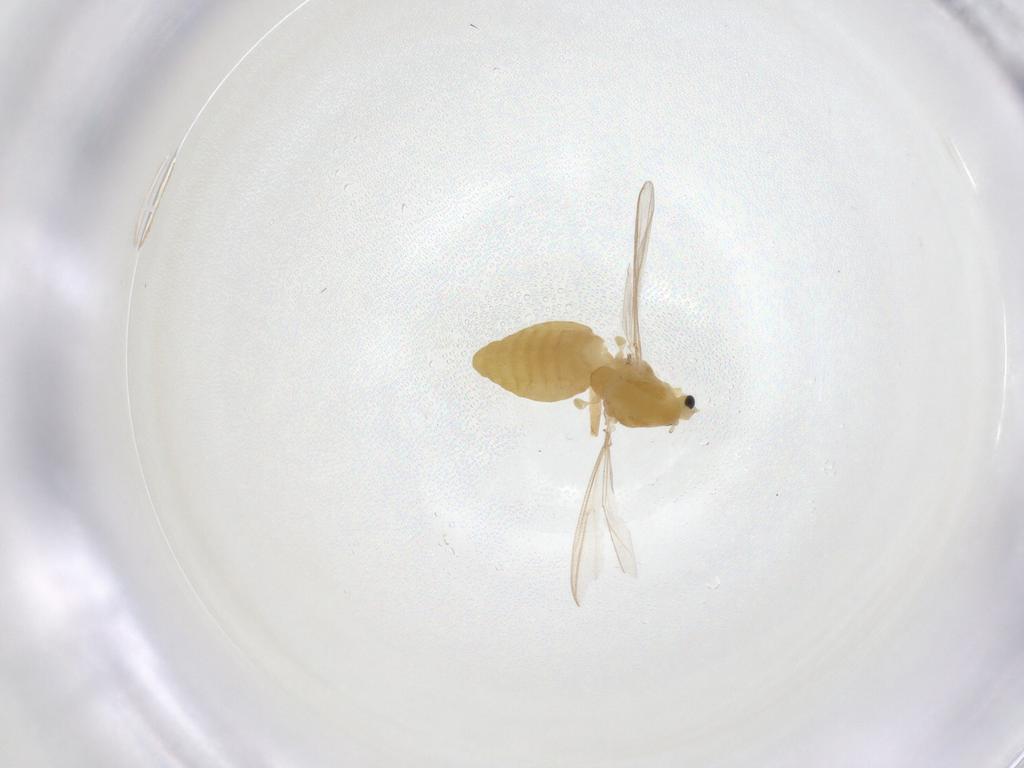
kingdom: Animalia
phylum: Arthropoda
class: Insecta
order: Diptera
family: Chironomidae
